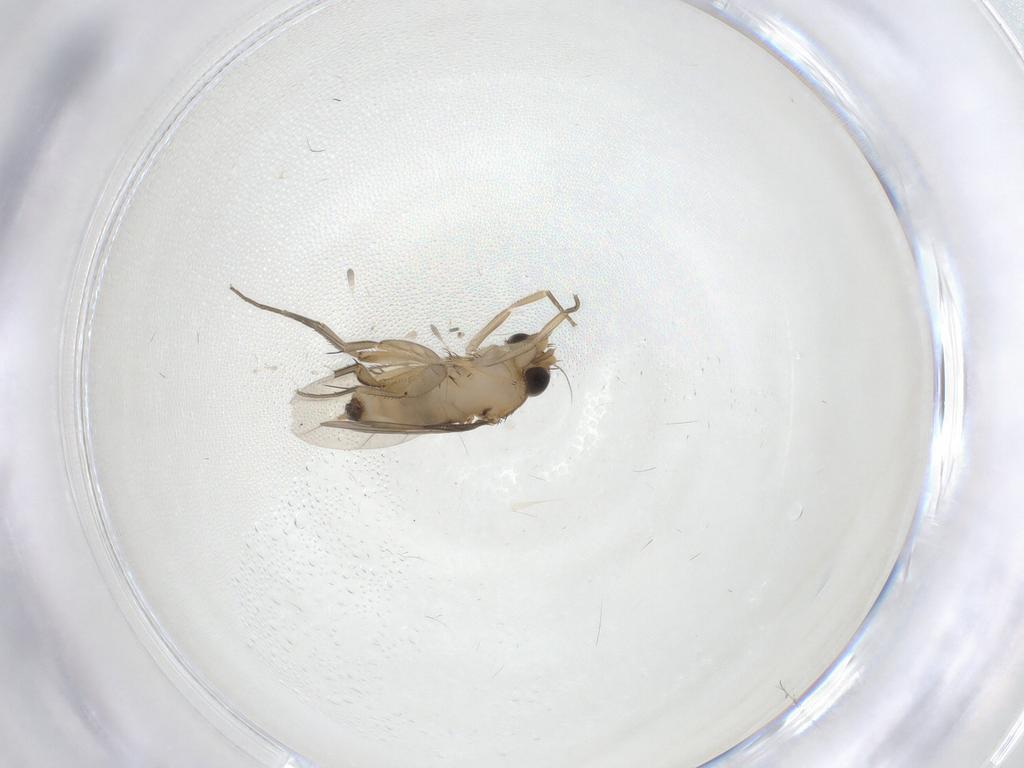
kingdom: Animalia
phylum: Arthropoda
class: Insecta
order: Diptera
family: Phoridae
